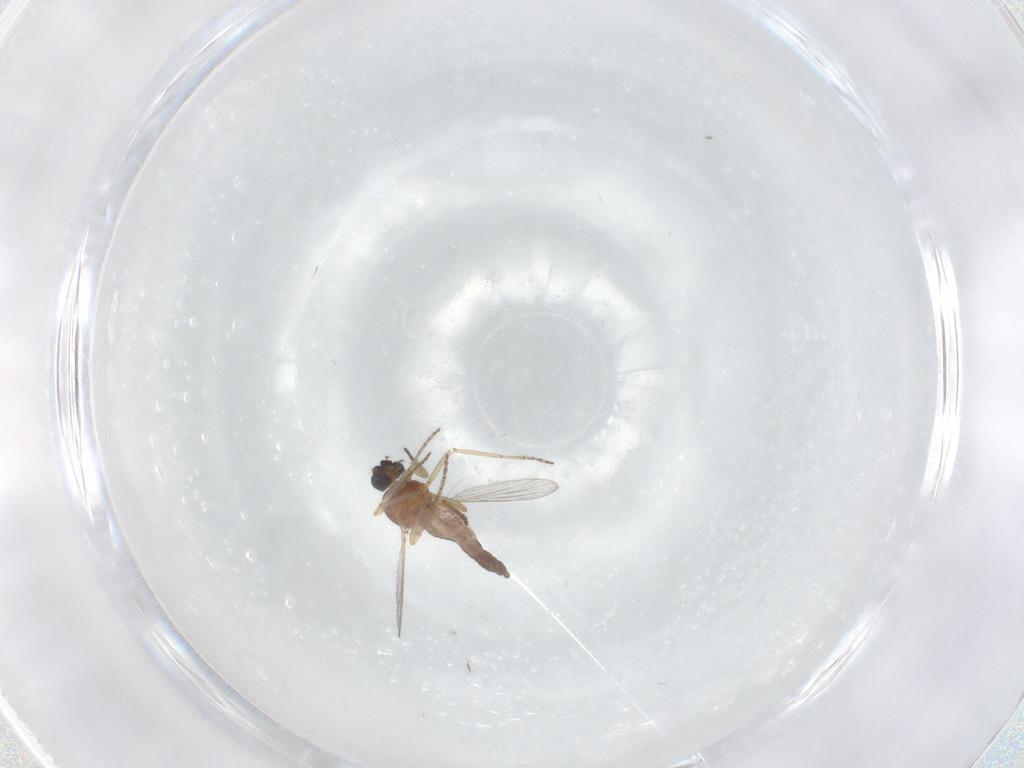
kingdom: Animalia
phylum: Arthropoda
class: Insecta
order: Diptera
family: Ceratopogonidae
